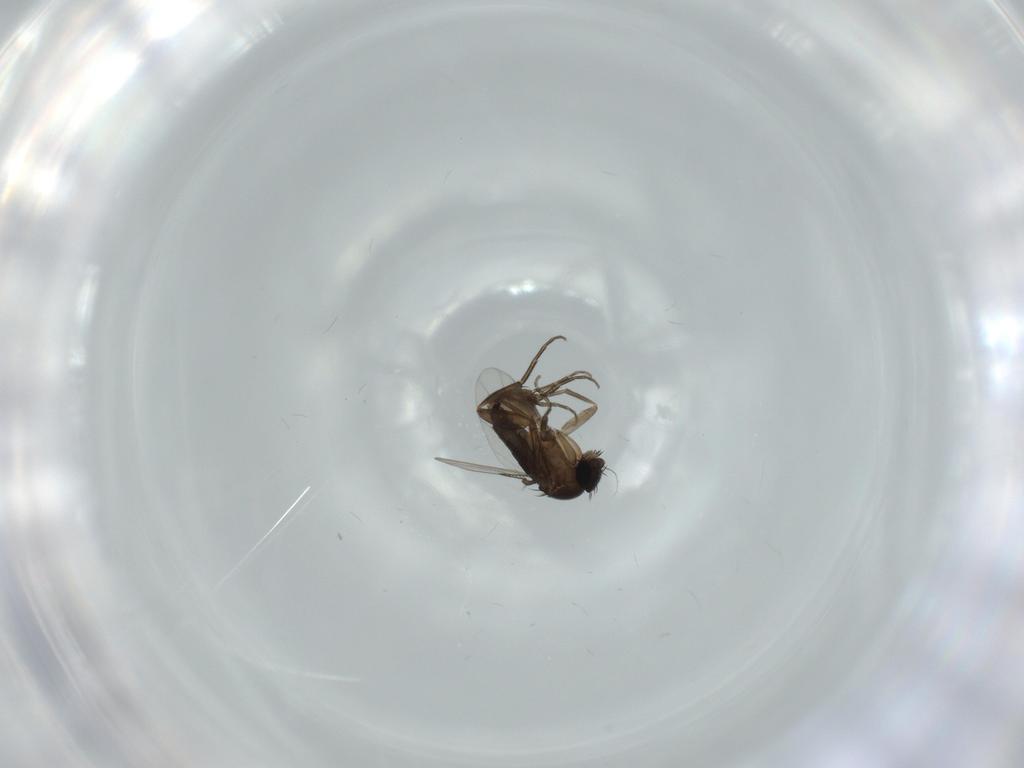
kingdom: Animalia
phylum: Arthropoda
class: Insecta
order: Diptera
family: Phoridae
